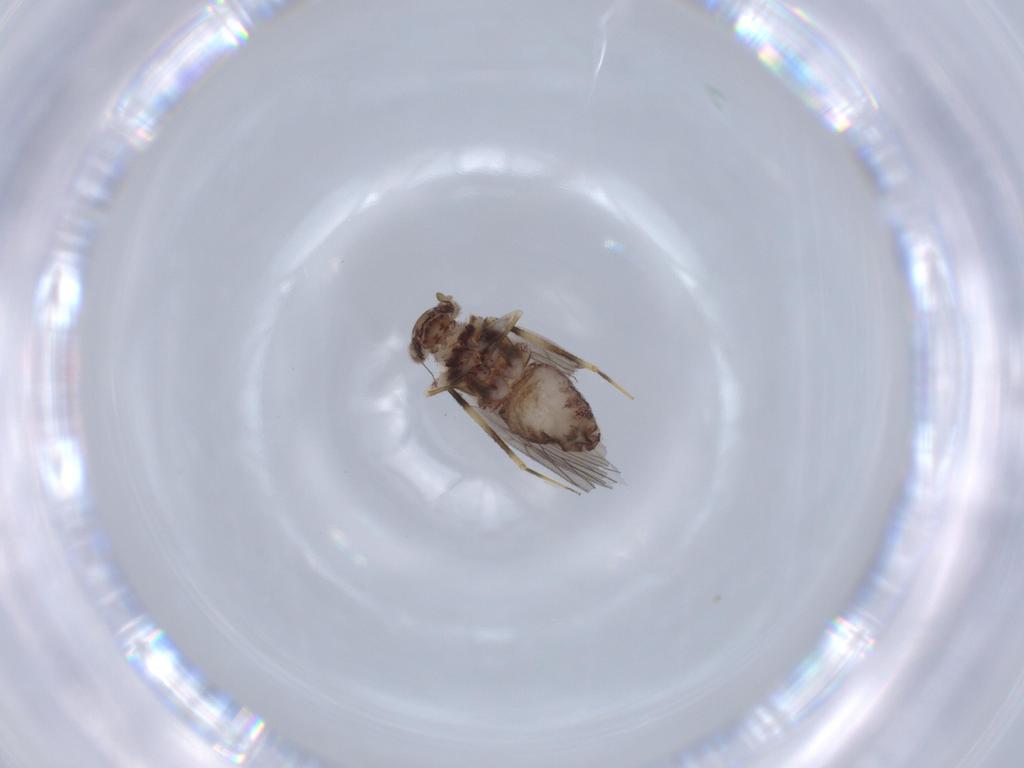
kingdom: Animalia
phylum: Arthropoda
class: Insecta
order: Psocodea
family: Lepidopsocidae
